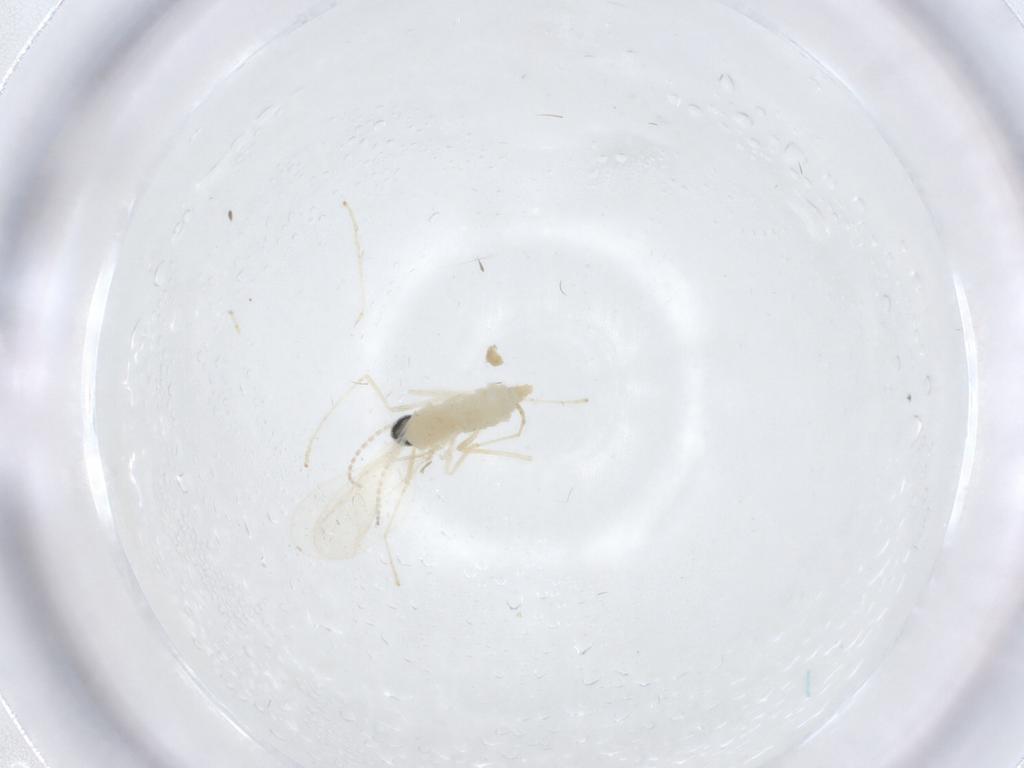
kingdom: Animalia
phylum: Arthropoda
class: Insecta
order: Diptera
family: Cecidomyiidae
